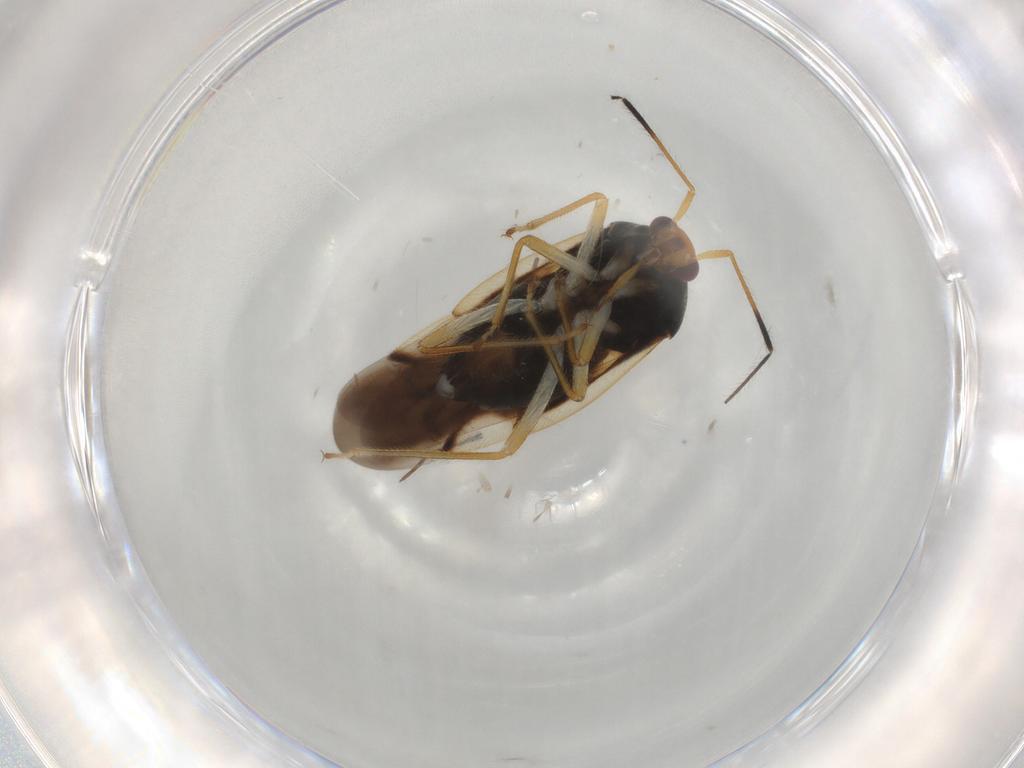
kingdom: Animalia
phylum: Arthropoda
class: Insecta
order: Hemiptera
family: Miridae
